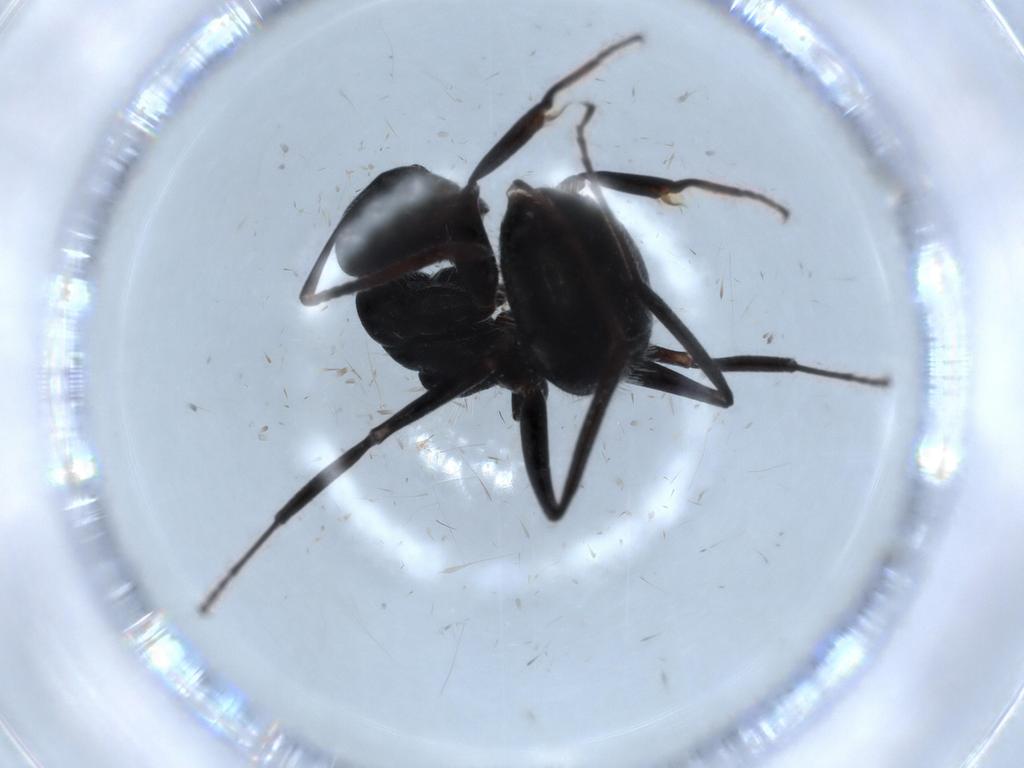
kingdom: Animalia
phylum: Arthropoda
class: Insecta
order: Hymenoptera
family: Formicidae
